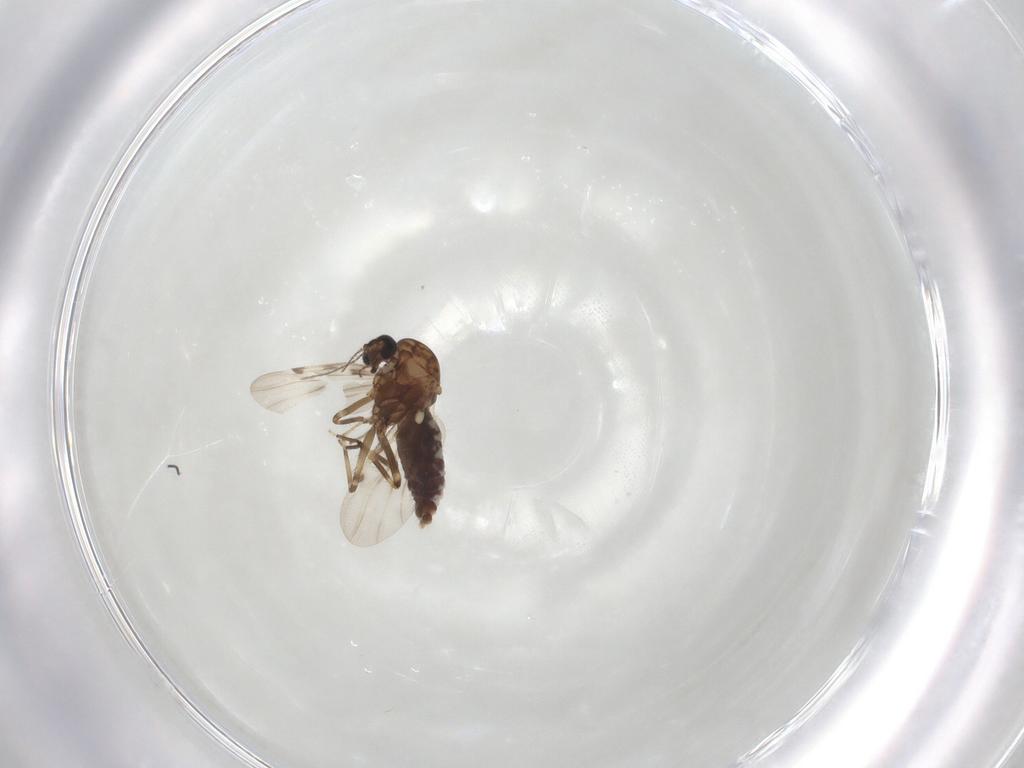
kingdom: Animalia
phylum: Arthropoda
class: Insecta
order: Diptera
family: Ceratopogonidae
